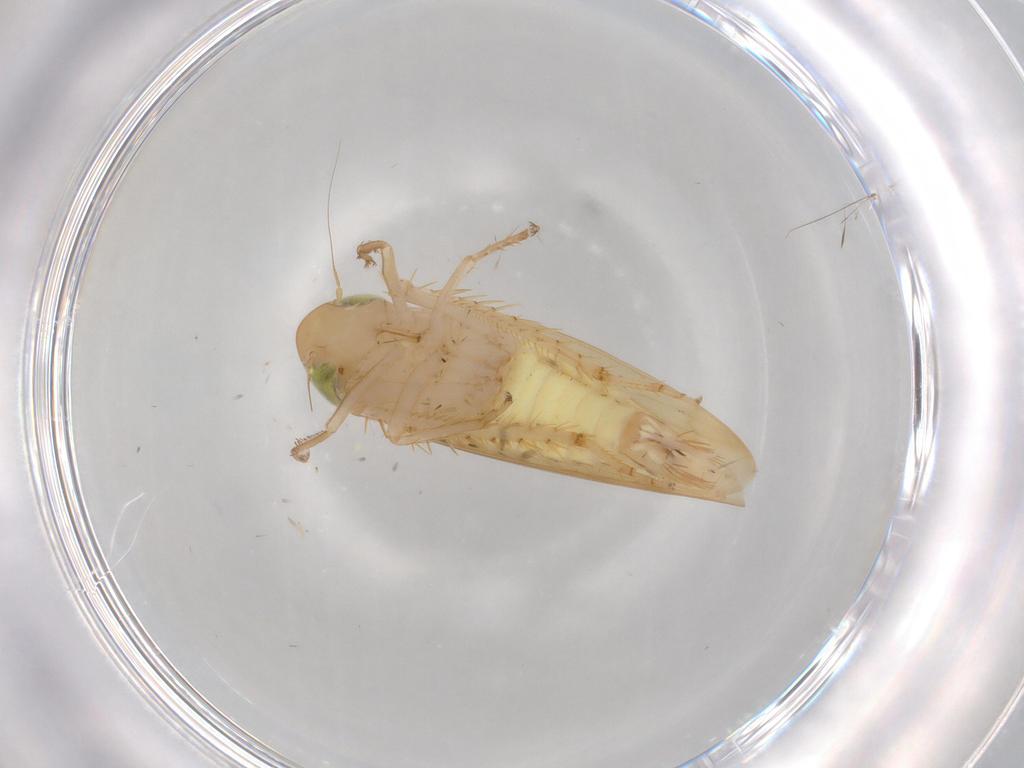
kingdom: Animalia
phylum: Arthropoda
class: Insecta
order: Hemiptera
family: Cicadellidae
